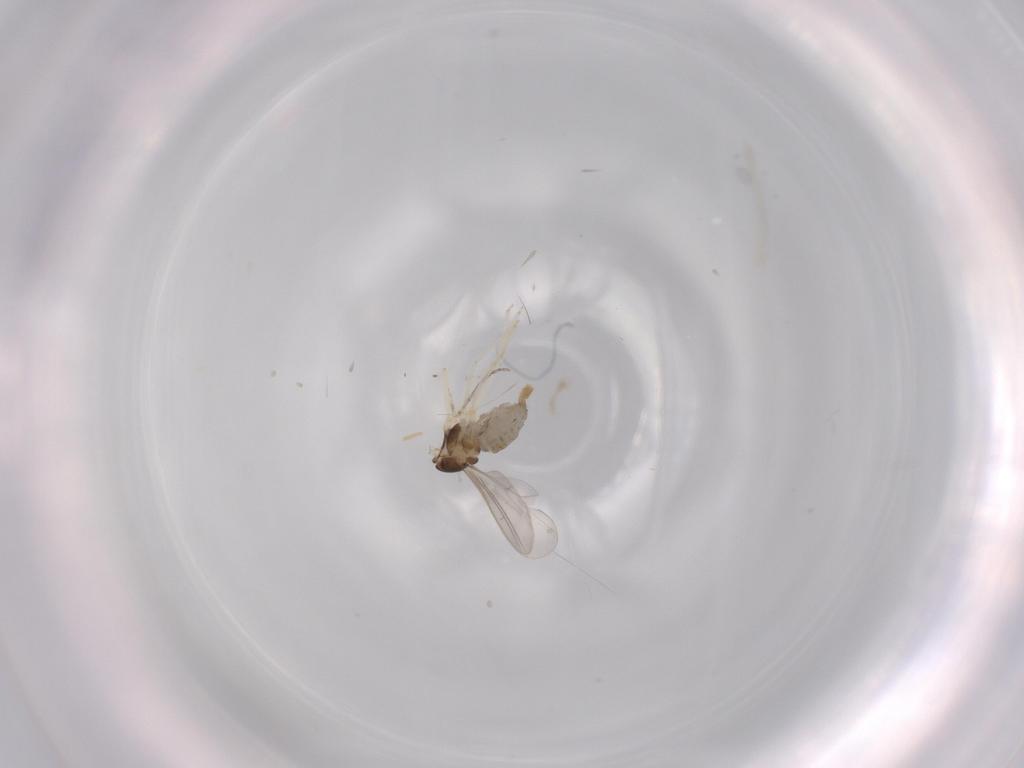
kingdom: Animalia
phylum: Arthropoda
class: Insecta
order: Diptera
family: Cecidomyiidae
